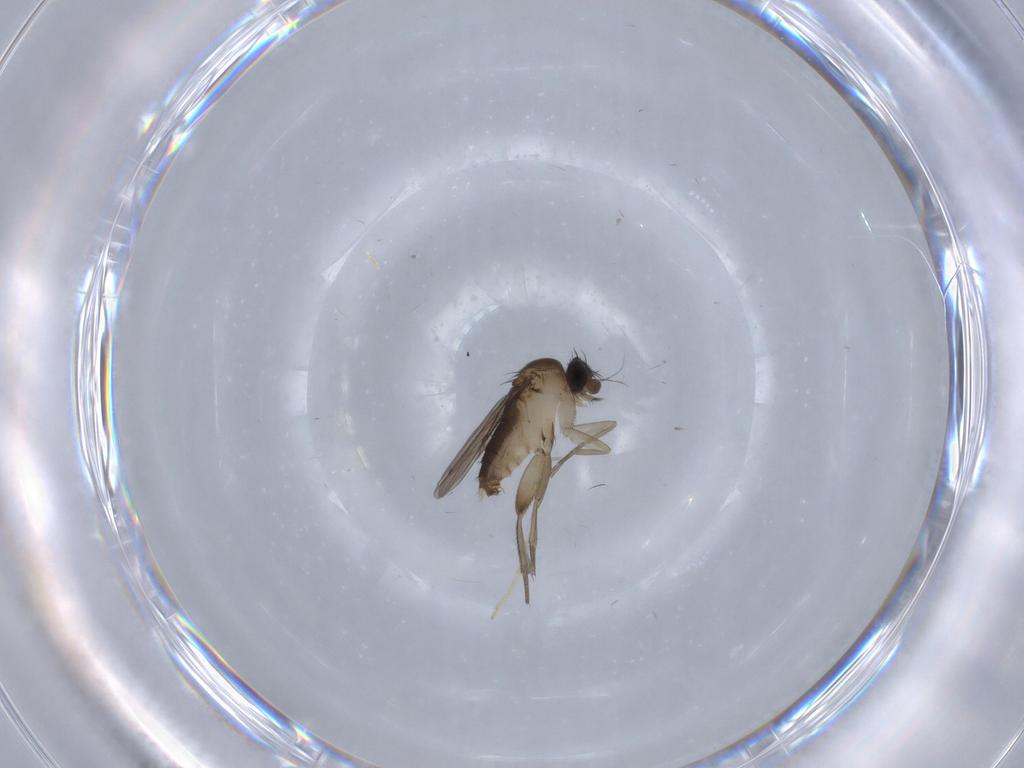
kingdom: Animalia
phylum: Arthropoda
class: Insecta
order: Diptera
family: Phoridae
